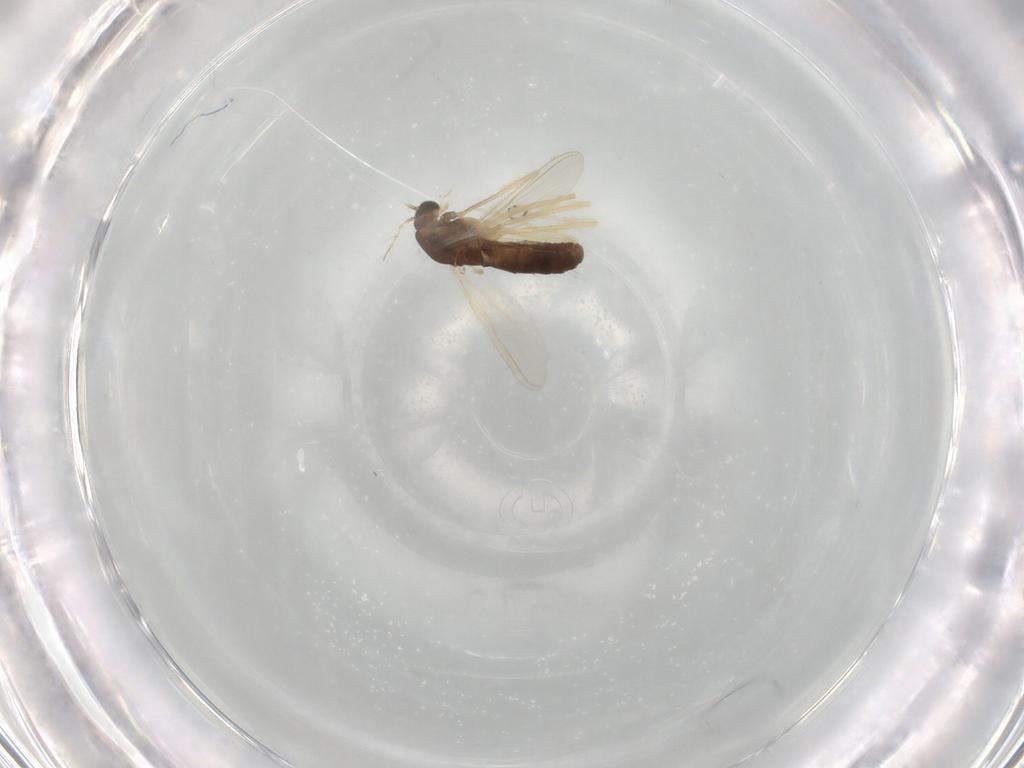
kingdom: Animalia
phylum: Arthropoda
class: Insecta
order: Diptera
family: Chironomidae
